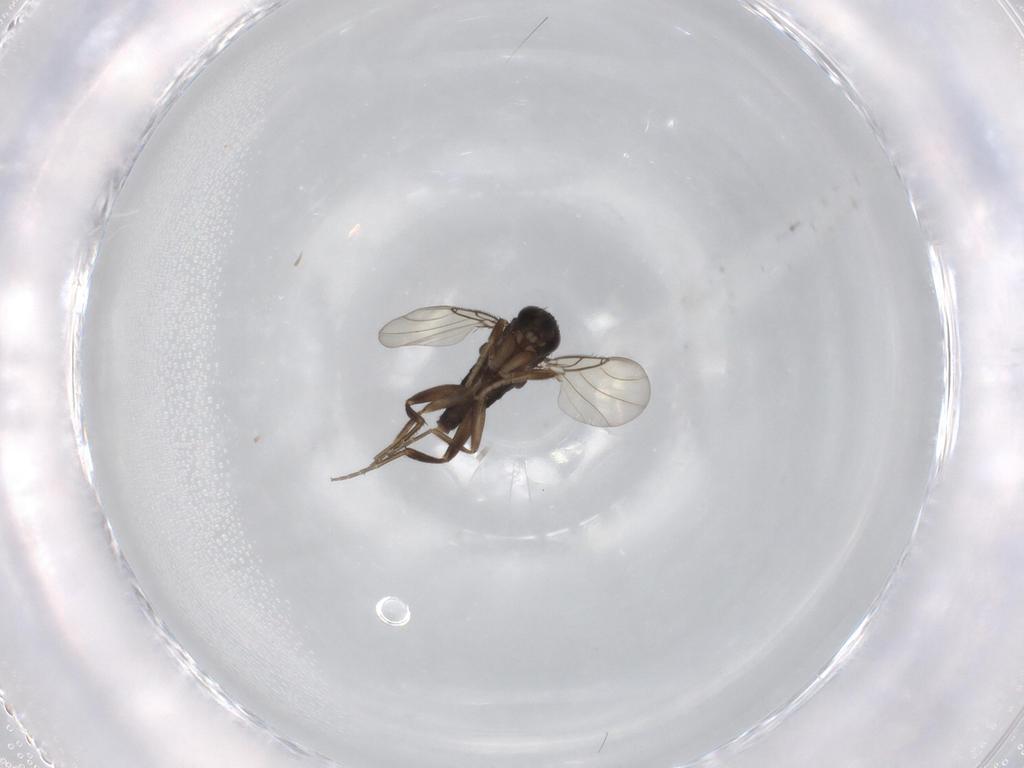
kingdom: Animalia
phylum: Arthropoda
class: Insecta
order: Diptera
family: Phoridae
